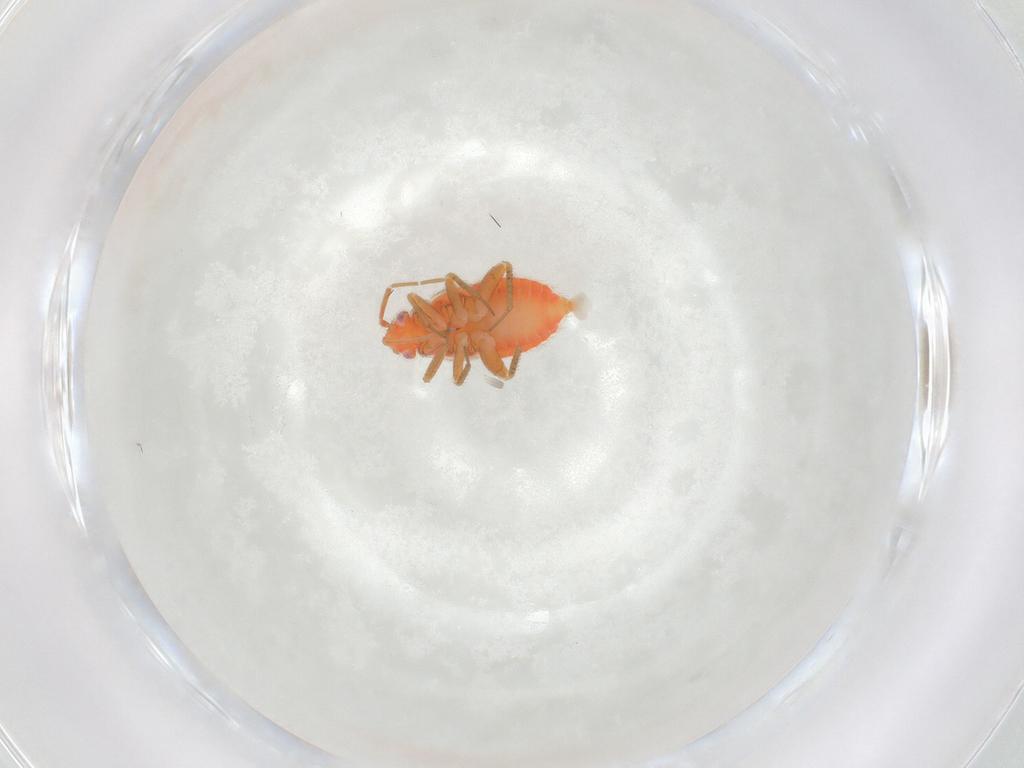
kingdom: Animalia
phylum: Arthropoda
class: Insecta
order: Hemiptera
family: Miridae
